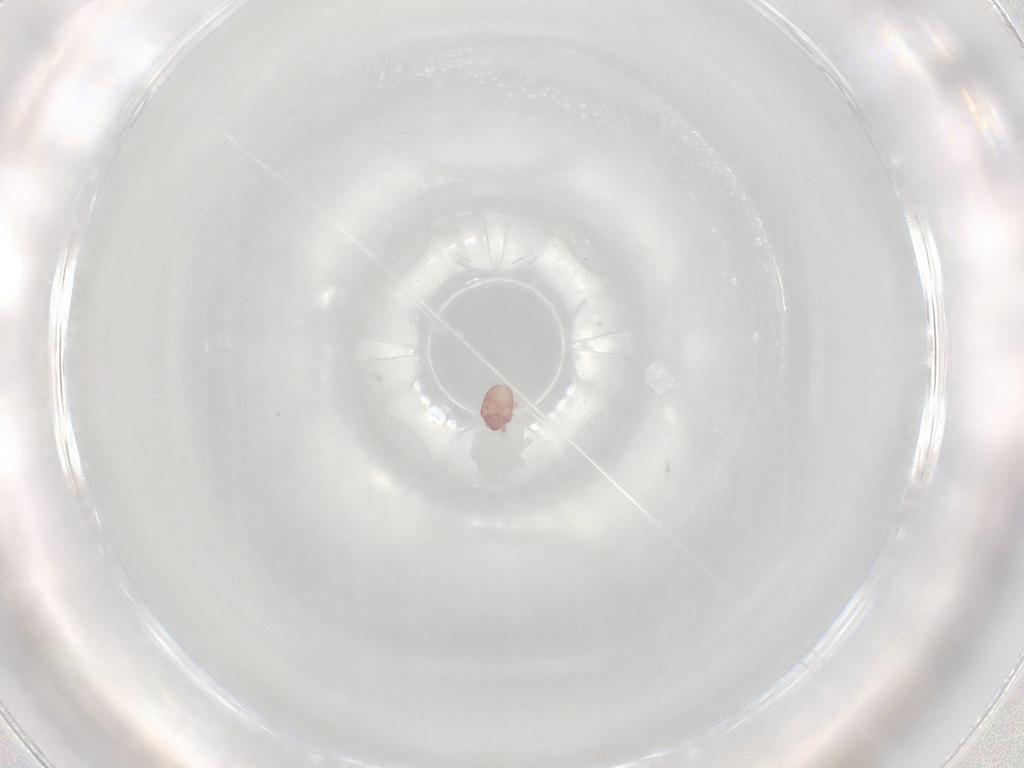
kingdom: Animalia
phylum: Arthropoda
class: Arachnida
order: Sarcoptiformes
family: Alycidae
